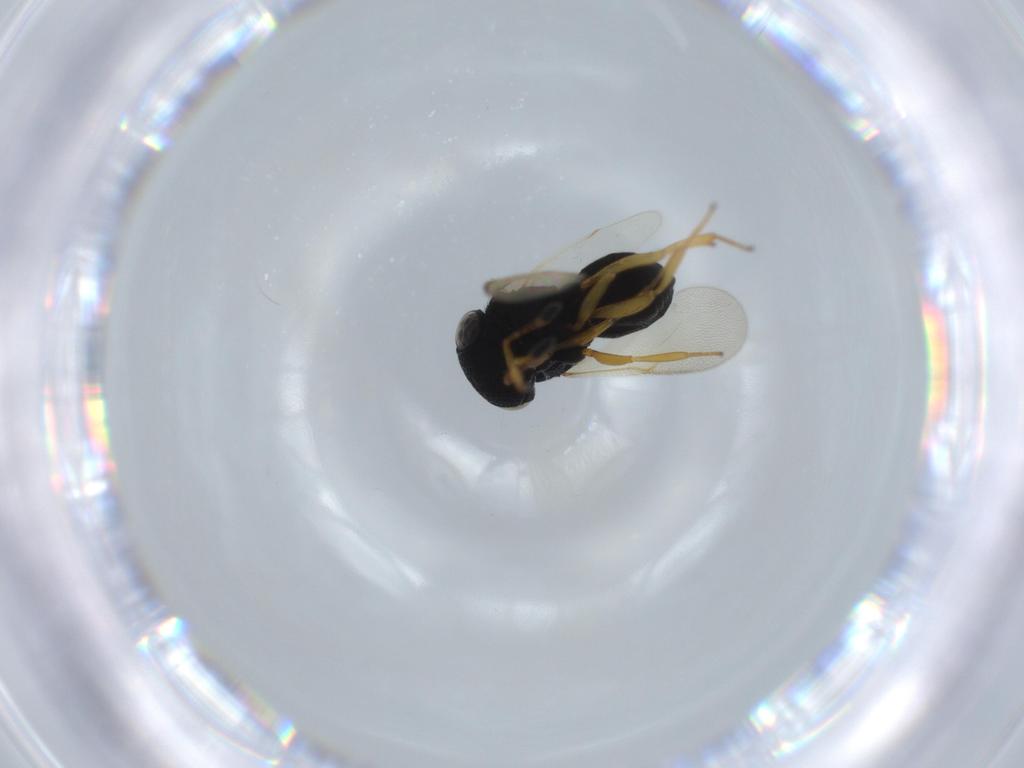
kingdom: Animalia
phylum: Arthropoda
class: Insecta
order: Hymenoptera
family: Scelionidae
